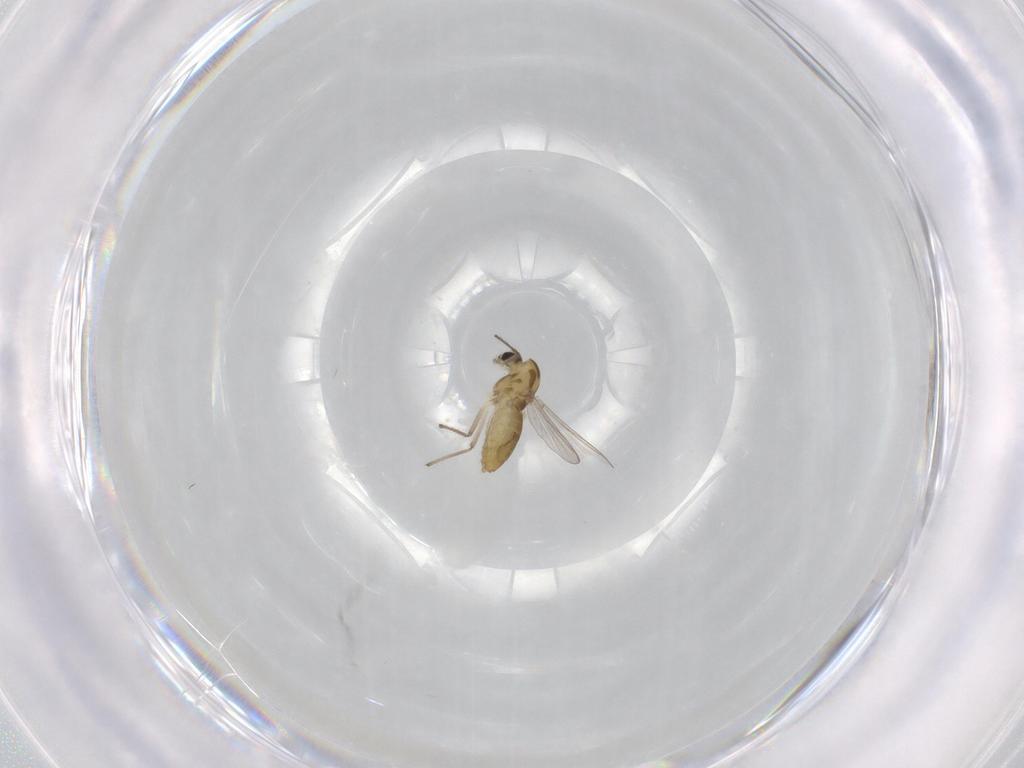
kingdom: Animalia
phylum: Arthropoda
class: Insecta
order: Diptera
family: Chironomidae
